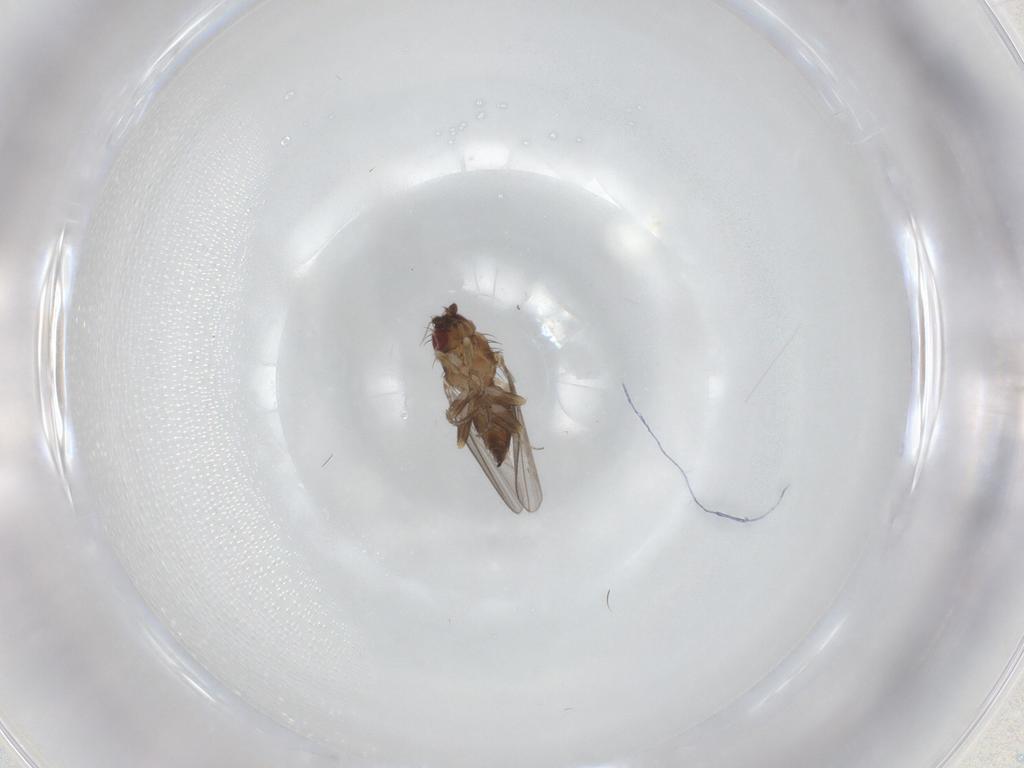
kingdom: Animalia
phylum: Arthropoda
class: Insecta
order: Diptera
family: Milichiidae
